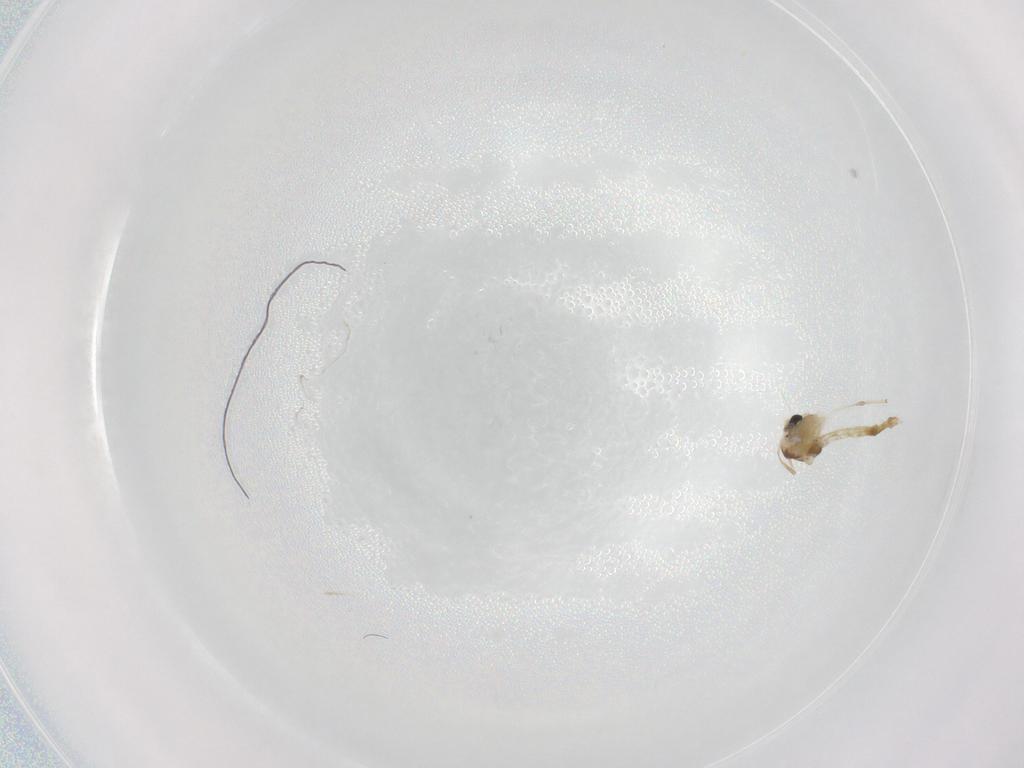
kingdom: Animalia
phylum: Arthropoda
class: Insecta
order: Diptera
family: Chironomidae
